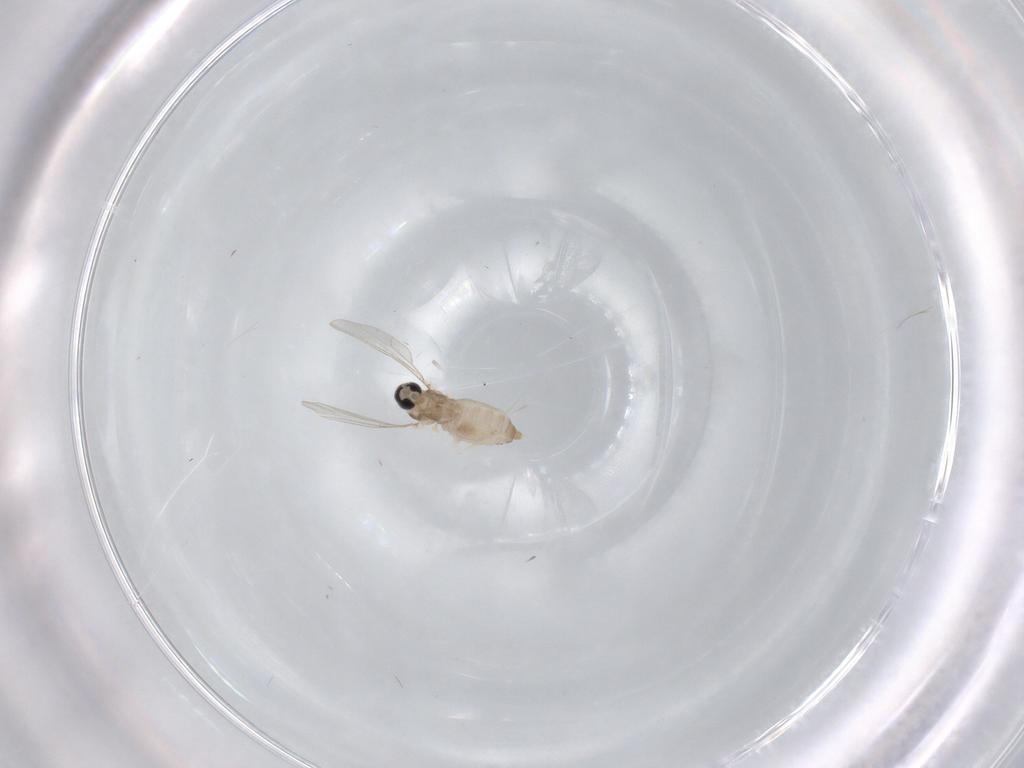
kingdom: Animalia
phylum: Arthropoda
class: Insecta
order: Diptera
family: Cecidomyiidae
